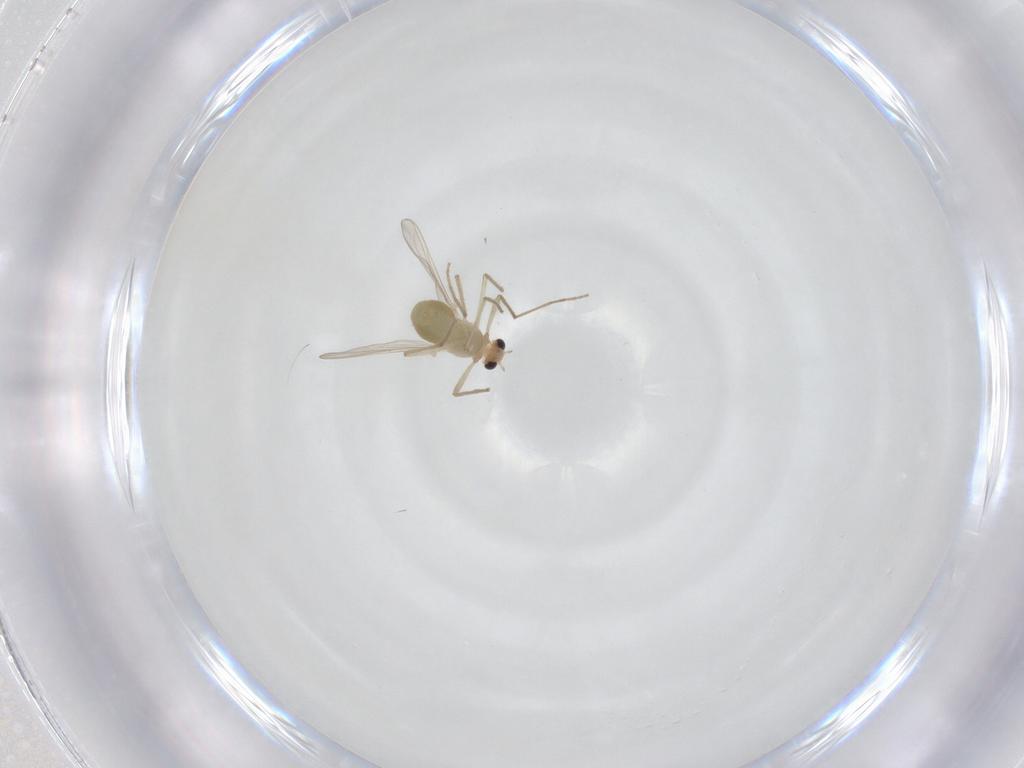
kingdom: Animalia
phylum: Arthropoda
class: Insecta
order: Diptera
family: Chironomidae
